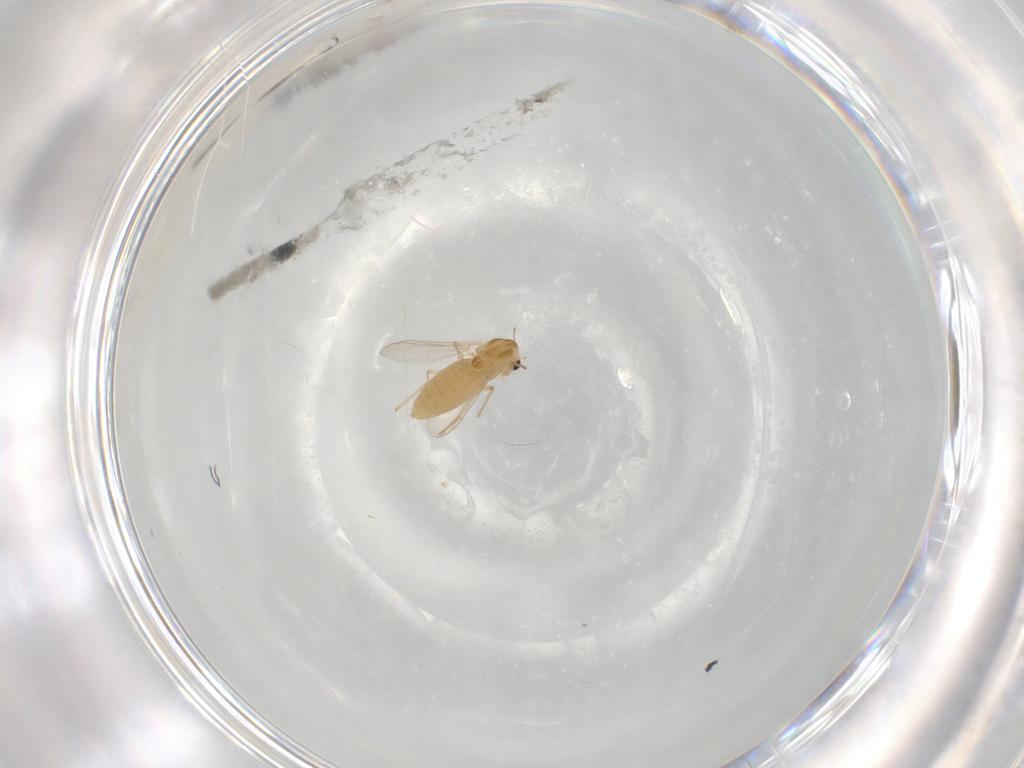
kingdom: Animalia
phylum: Arthropoda
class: Insecta
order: Diptera
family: Chironomidae
